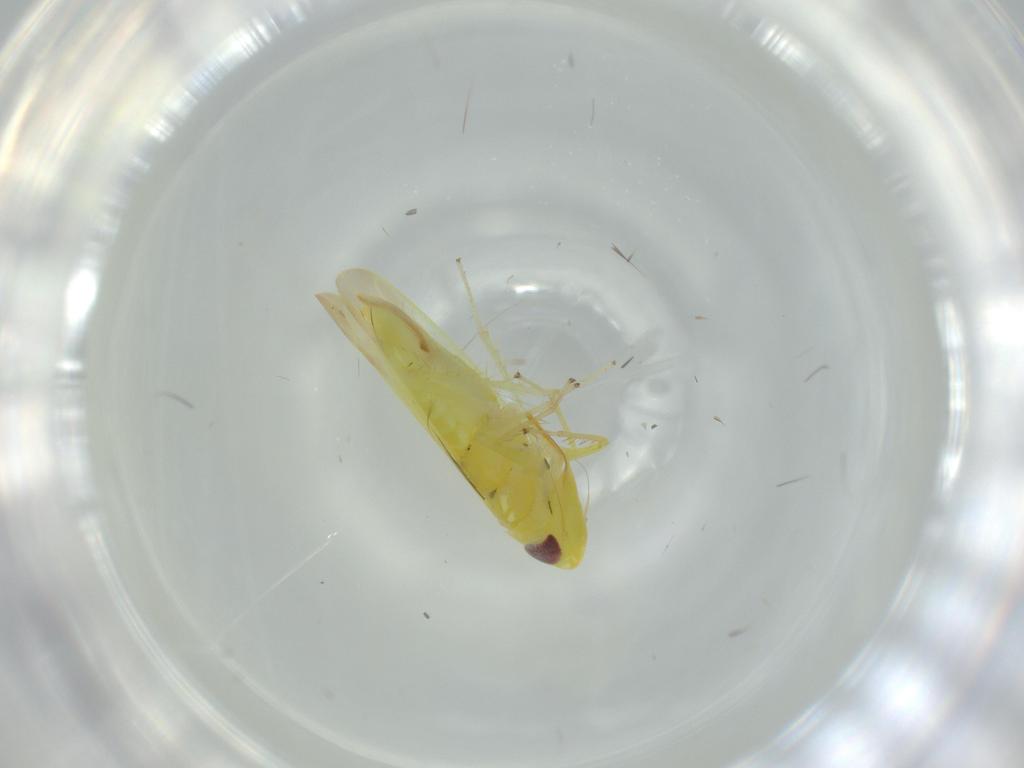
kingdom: Animalia
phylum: Arthropoda
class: Insecta
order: Hemiptera
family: Cicadellidae
